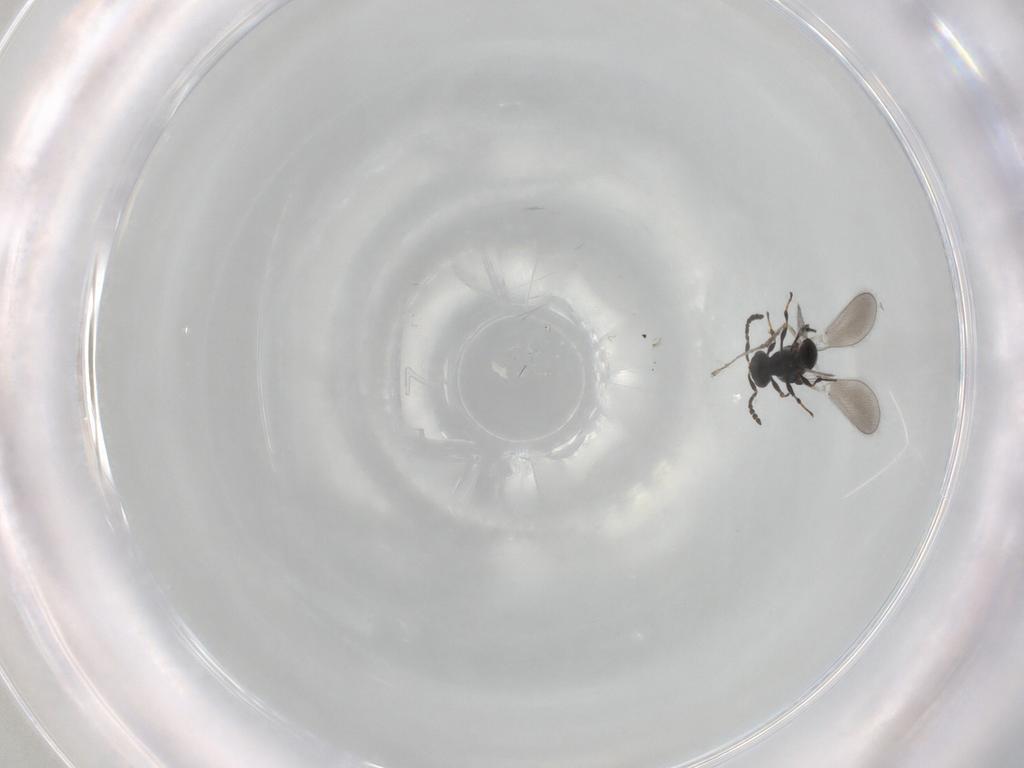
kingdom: Animalia
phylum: Arthropoda
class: Insecta
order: Hymenoptera
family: Platygastridae
